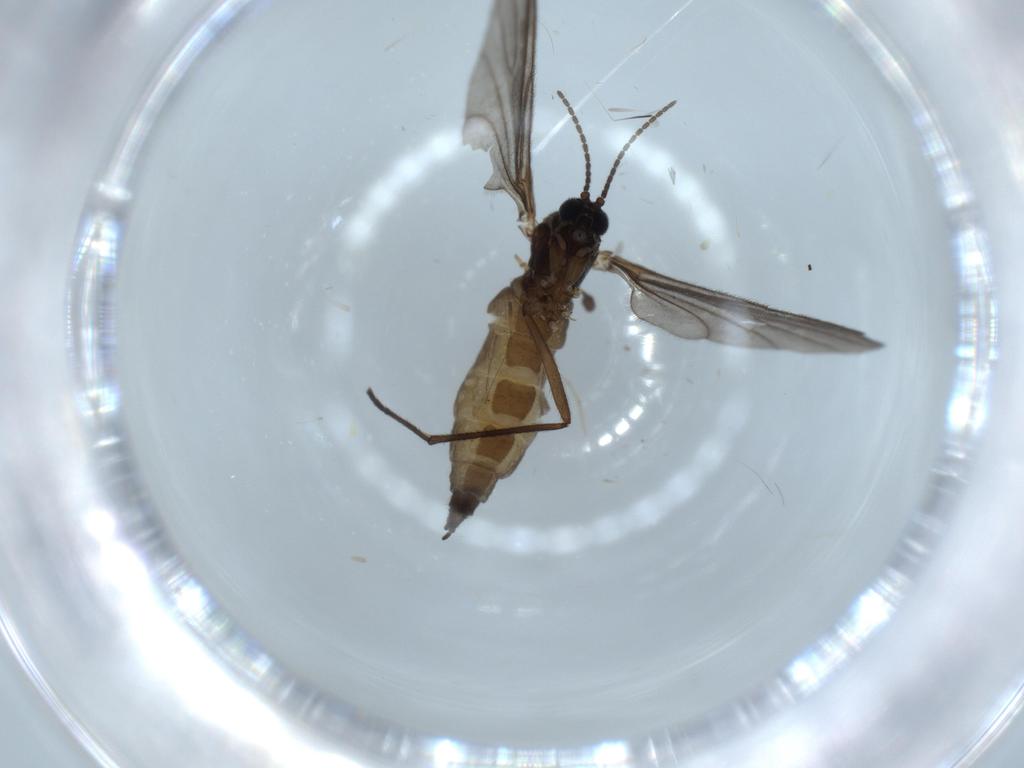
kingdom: Animalia
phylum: Arthropoda
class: Insecta
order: Diptera
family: Sciaridae
